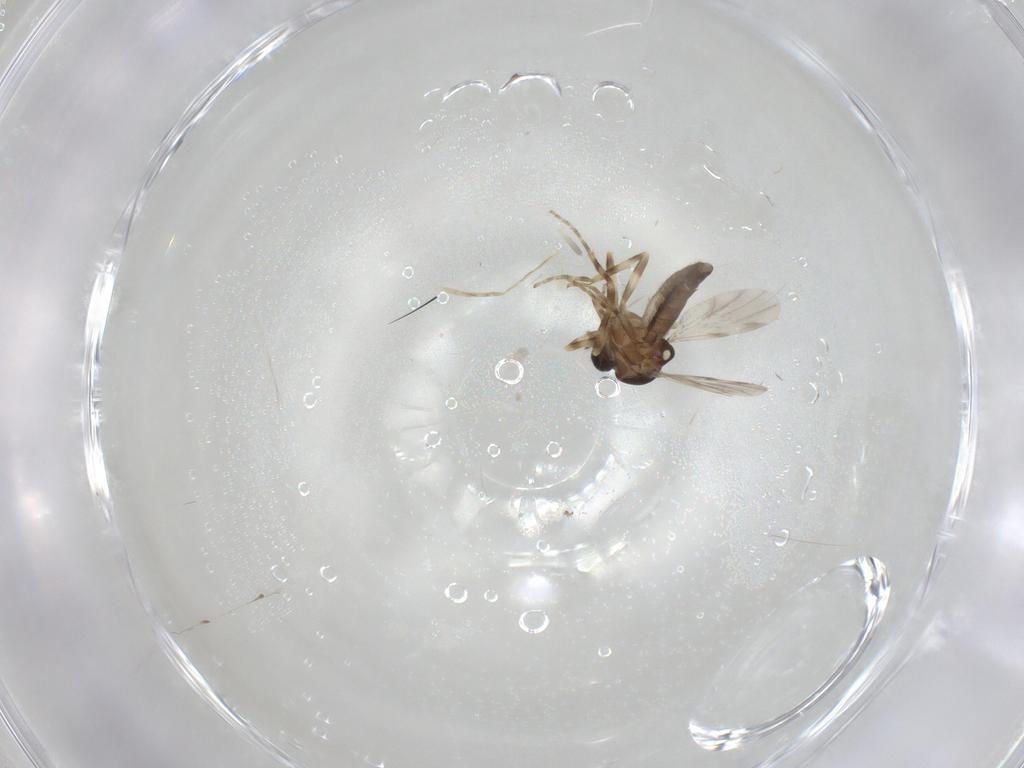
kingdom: Animalia
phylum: Arthropoda
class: Insecta
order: Diptera
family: Ceratopogonidae
